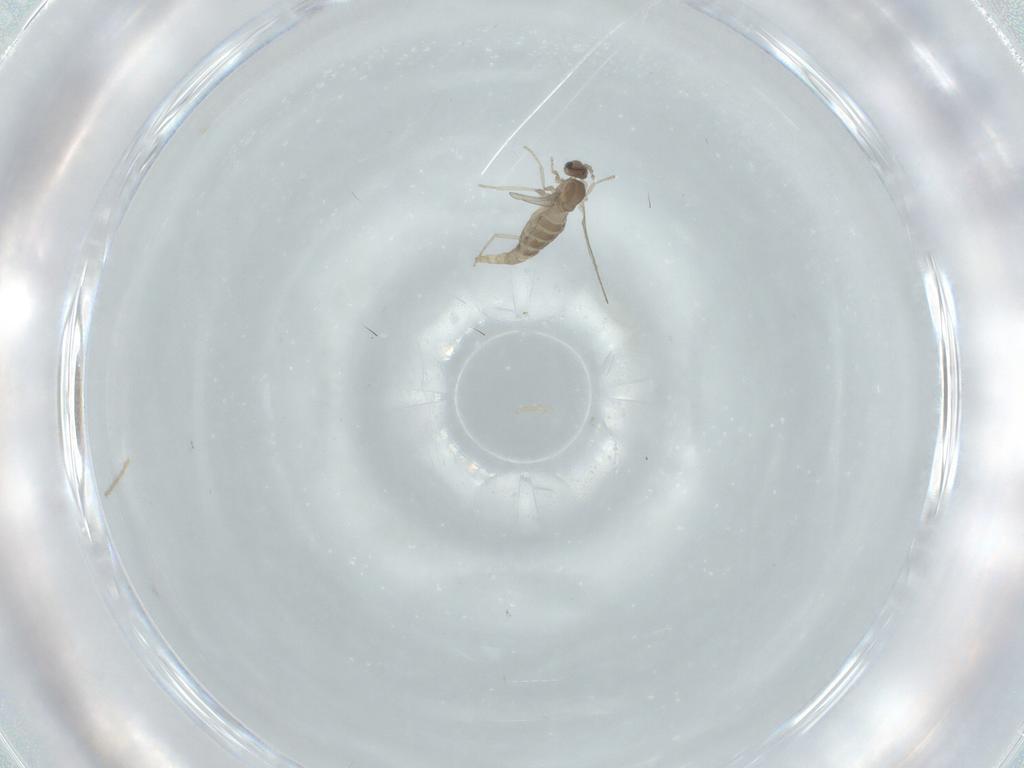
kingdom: Animalia
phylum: Arthropoda
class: Insecta
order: Diptera
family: Cecidomyiidae
